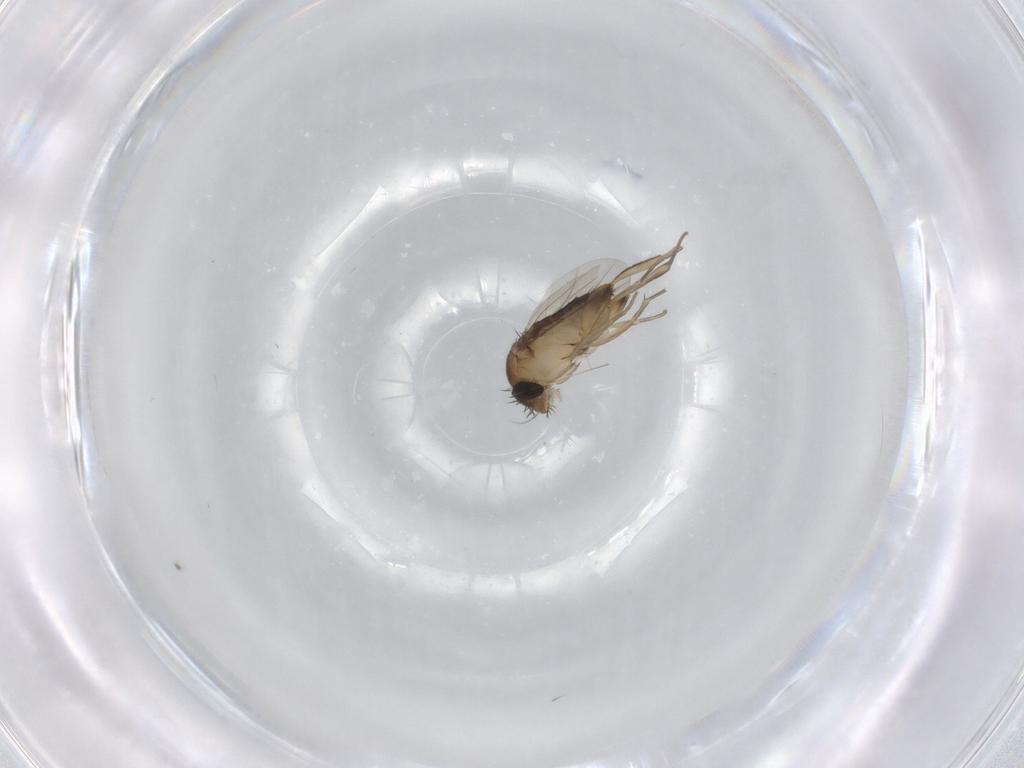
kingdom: Animalia
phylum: Arthropoda
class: Insecta
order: Diptera
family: Phoridae
